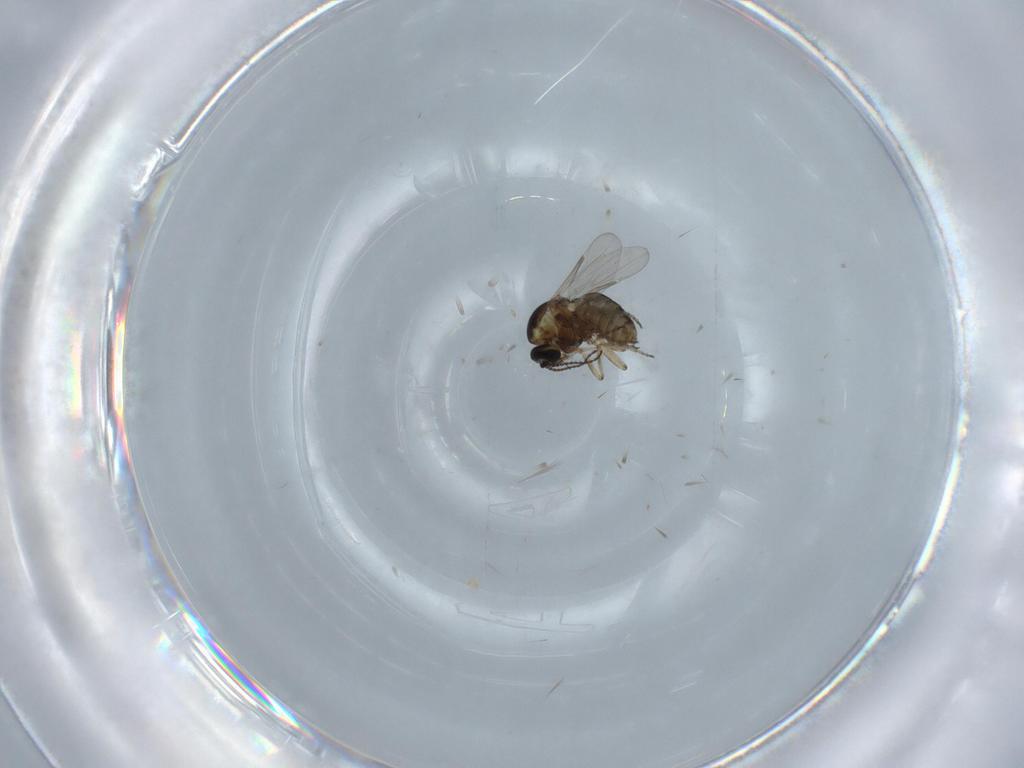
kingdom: Animalia
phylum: Arthropoda
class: Insecta
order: Diptera
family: Ceratopogonidae
